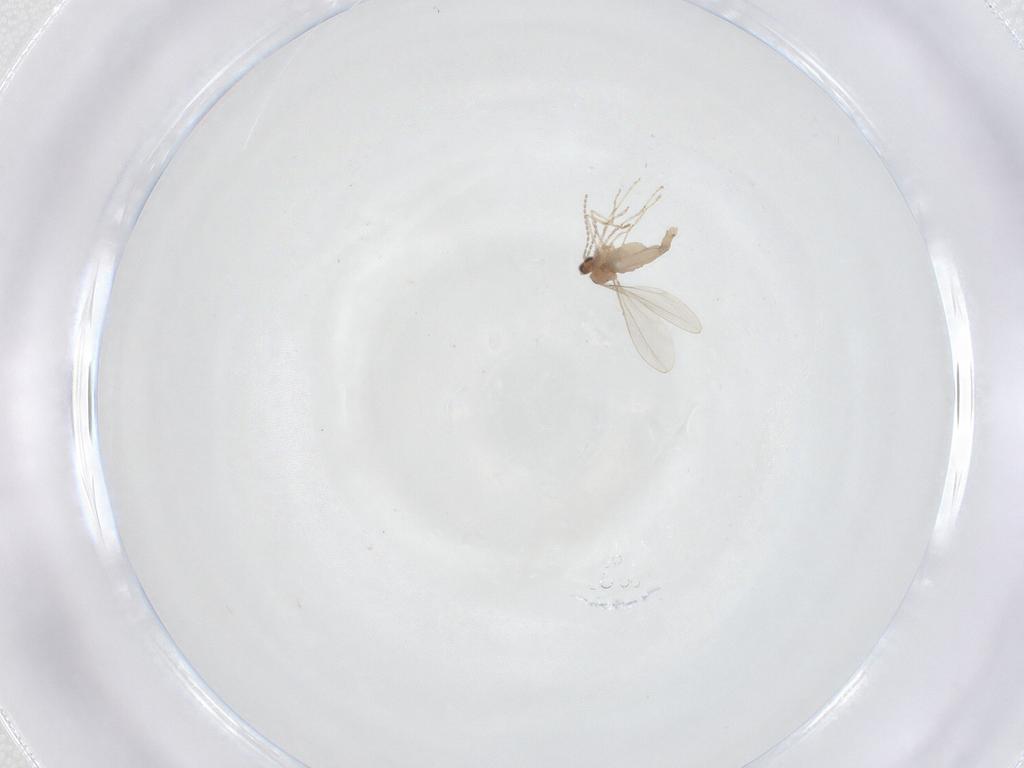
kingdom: Animalia
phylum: Arthropoda
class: Insecta
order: Diptera
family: Cecidomyiidae
